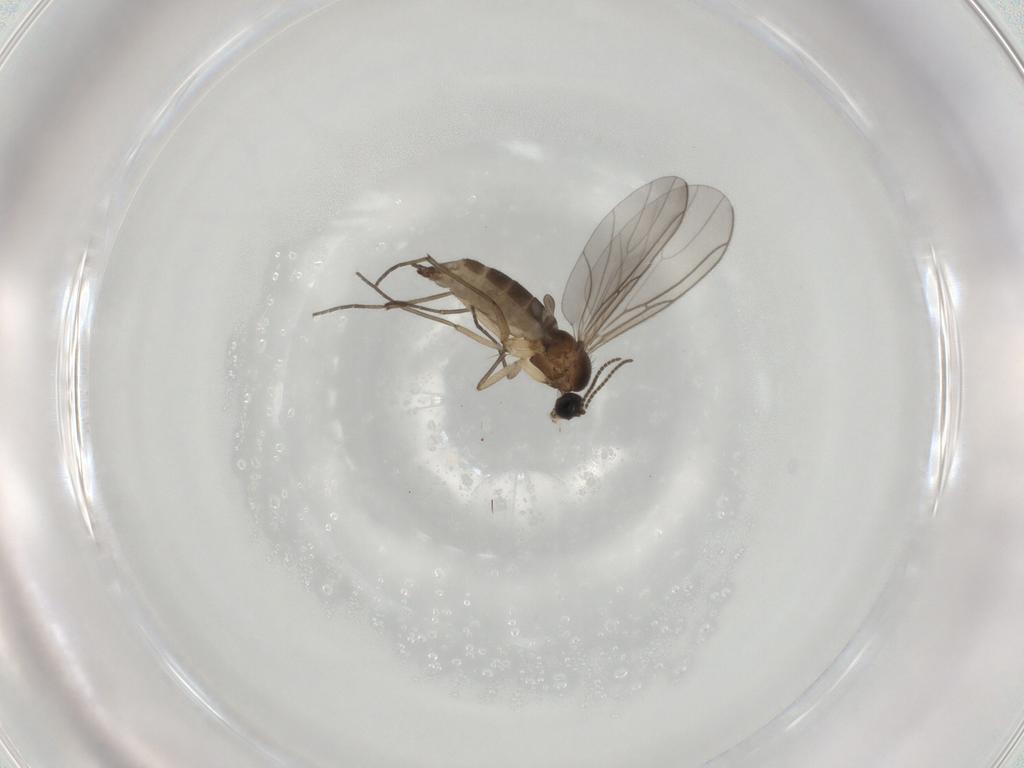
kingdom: Animalia
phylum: Arthropoda
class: Insecta
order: Diptera
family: Sciaridae
